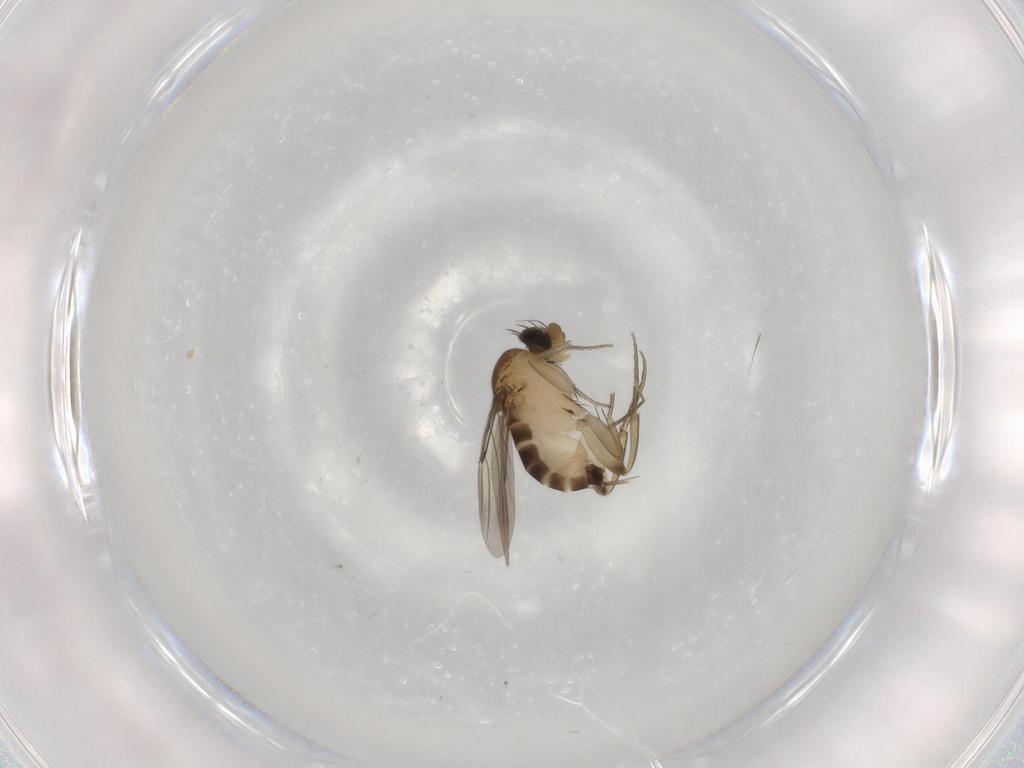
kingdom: Animalia
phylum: Arthropoda
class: Insecta
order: Diptera
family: Phoridae
